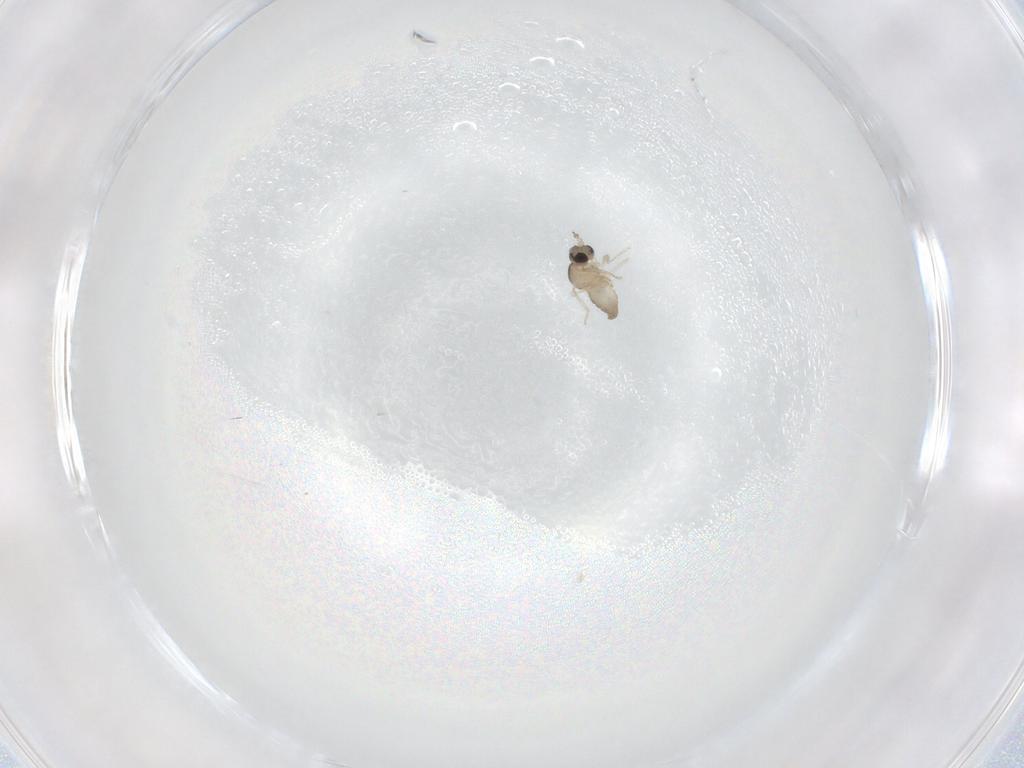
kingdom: Animalia
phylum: Arthropoda
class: Insecta
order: Diptera
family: Cecidomyiidae
